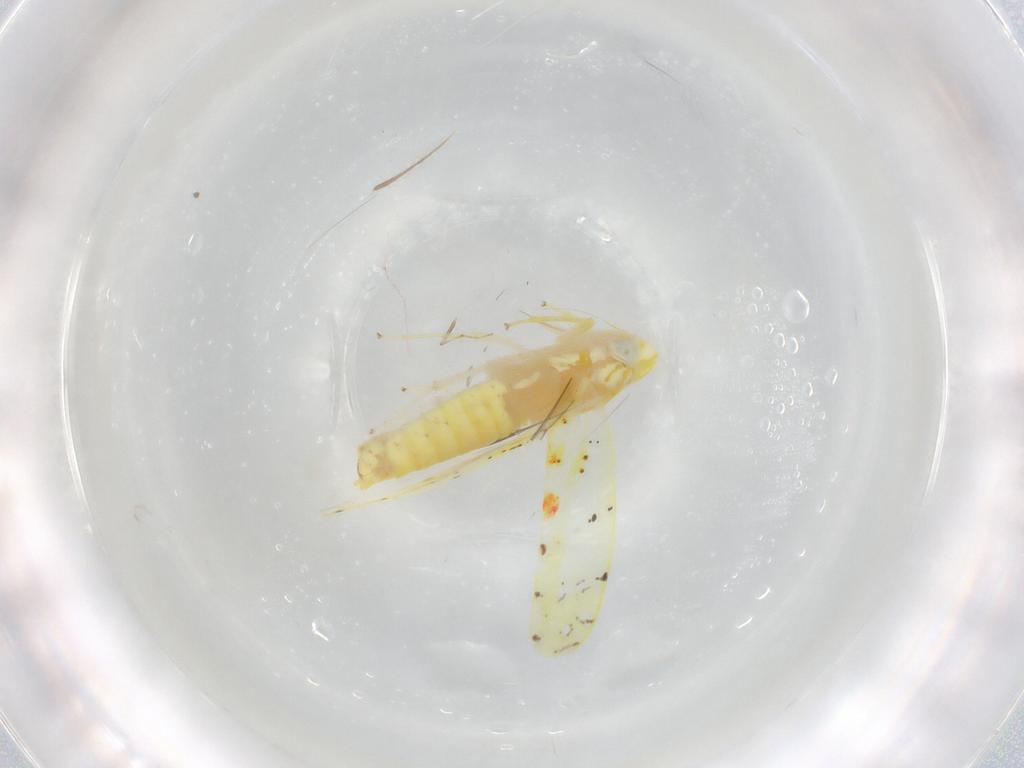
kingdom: Animalia
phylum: Arthropoda
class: Insecta
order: Hemiptera
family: Cicadellidae
